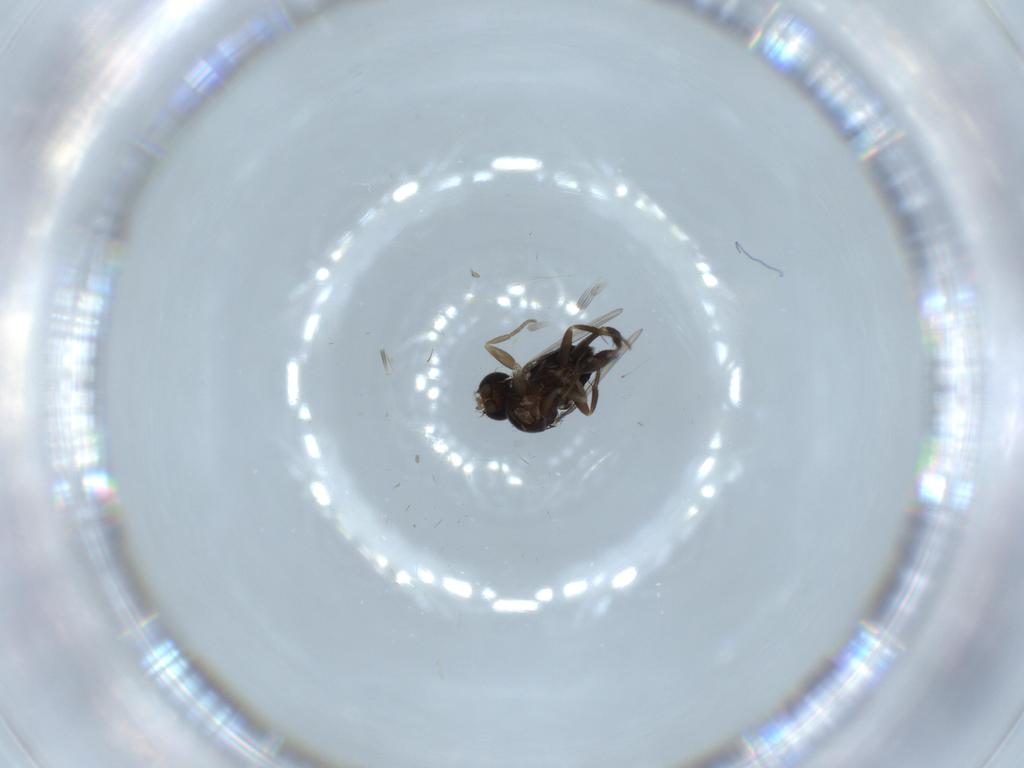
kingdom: Animalia
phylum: Arthropoda
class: Insecta
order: Diptera
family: Phoridae
